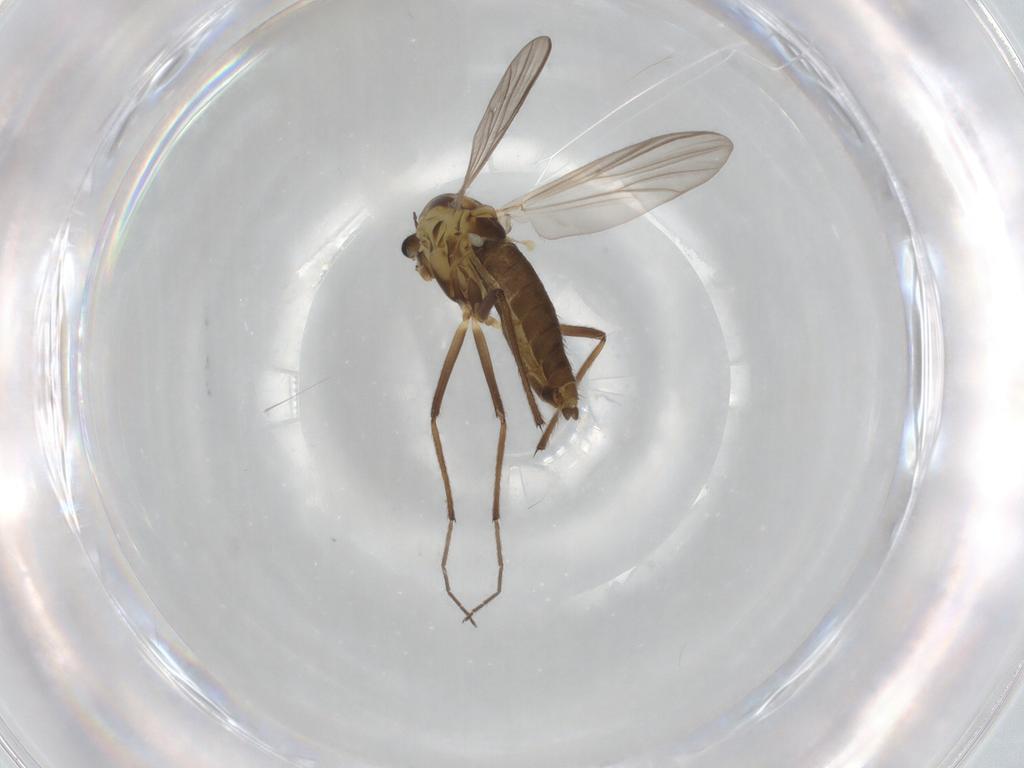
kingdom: Animalia
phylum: Arthropoda
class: Insecta
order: Diptera
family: Chironomidae
